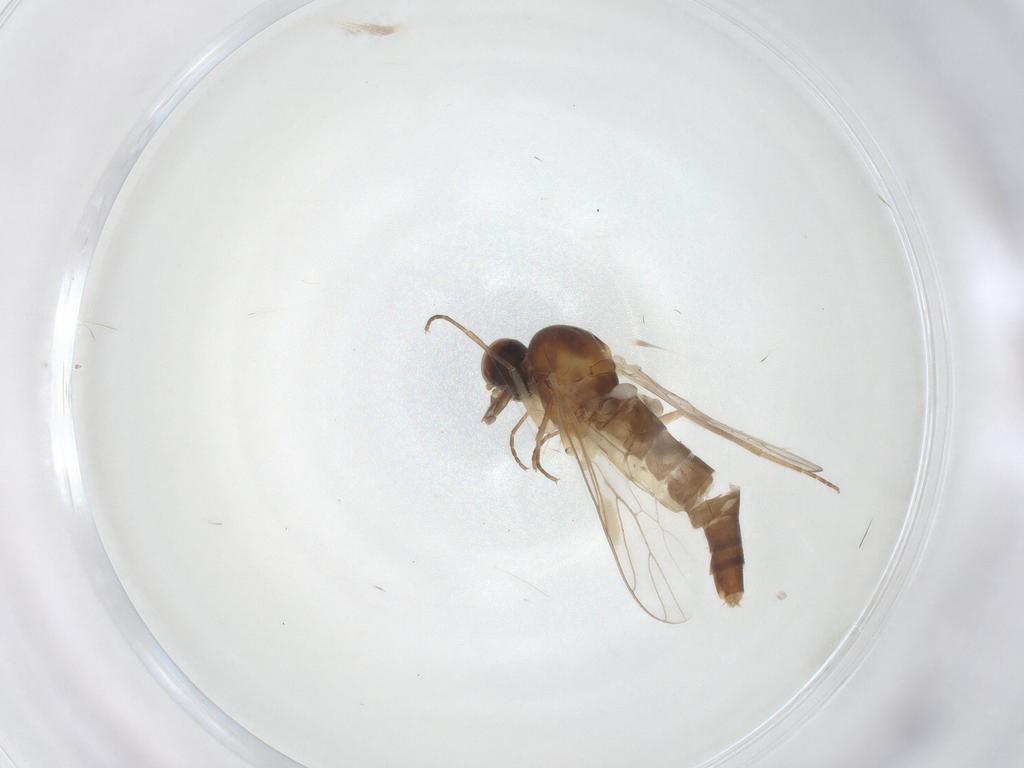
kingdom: Animalia
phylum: Arthropoda
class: Insecta
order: Diptera
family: Scenopinidae
